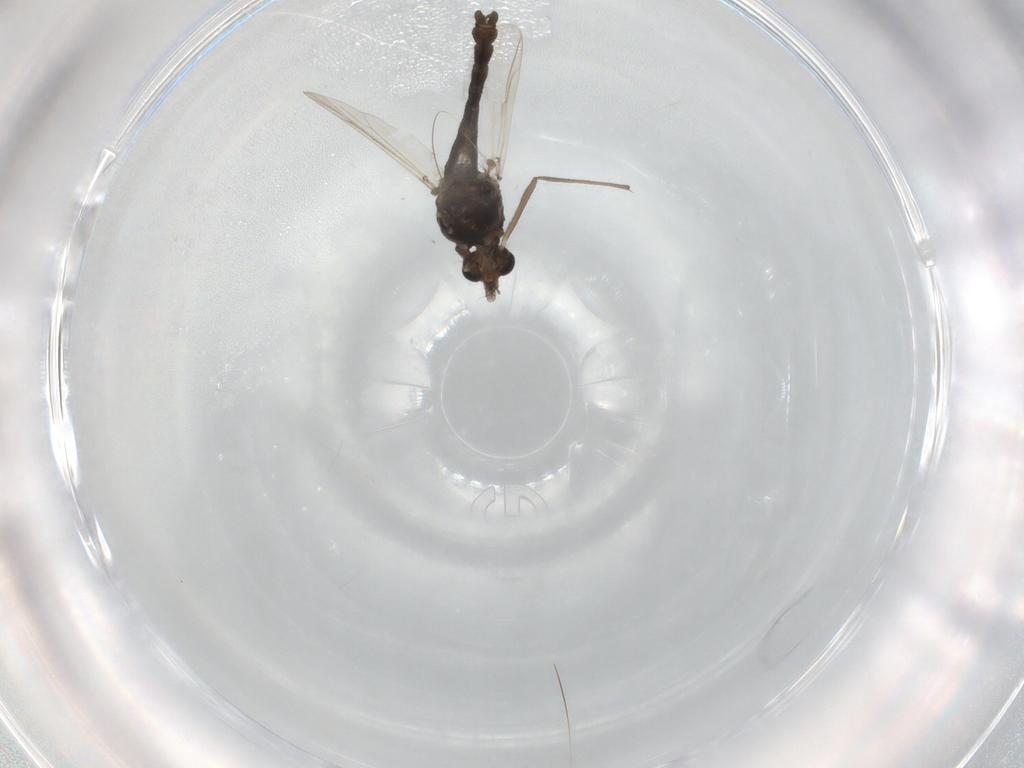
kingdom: Animalia
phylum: Arthropoda
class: Insecta
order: Diptera
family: Chironomidae
